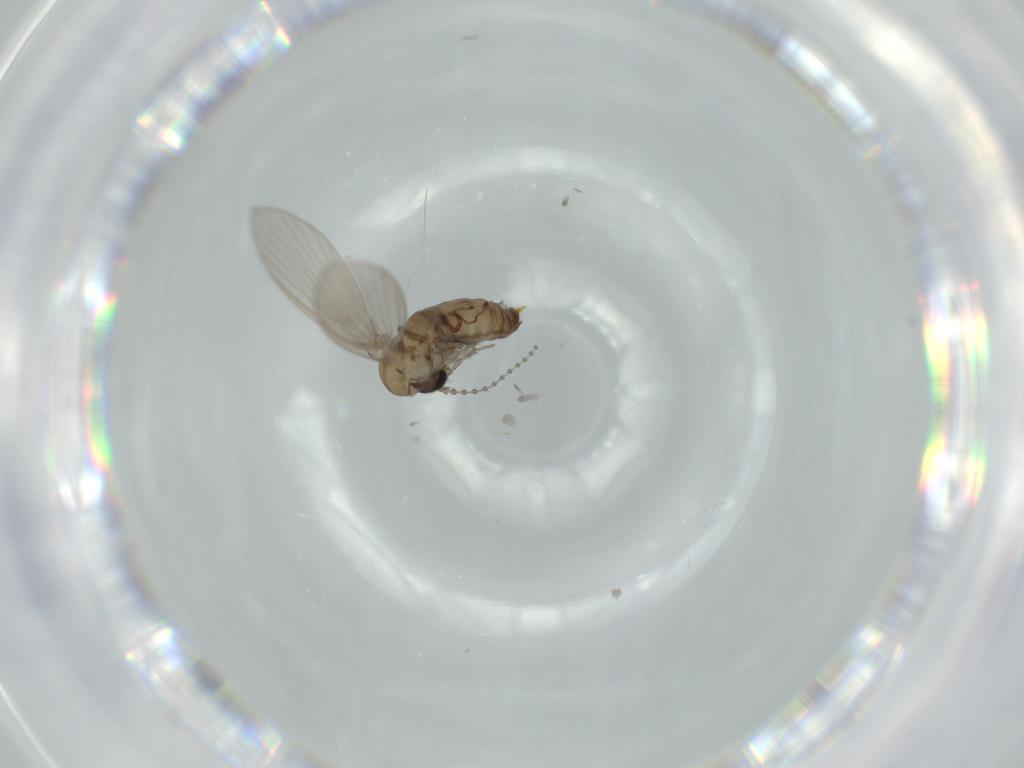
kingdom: Animalia
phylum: Arthropoda
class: Insecta
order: Diptera
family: Psychodidae
